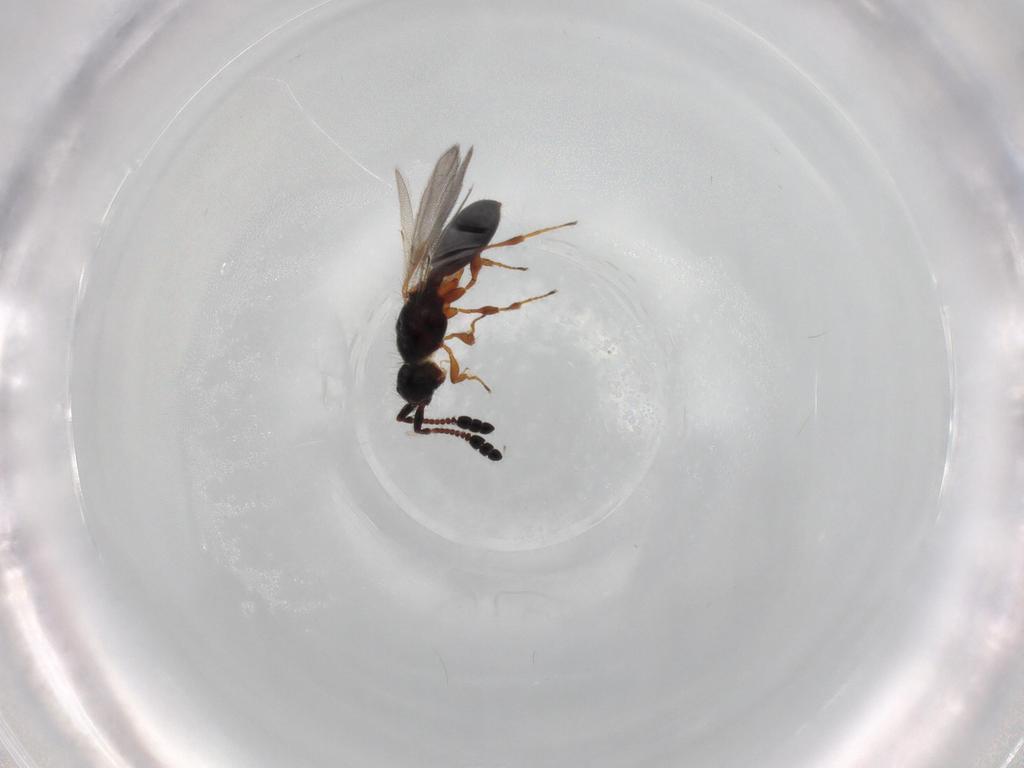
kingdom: Animalia
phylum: Arthropoda
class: Insecta
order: Hymenoptera
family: Diapriidae
